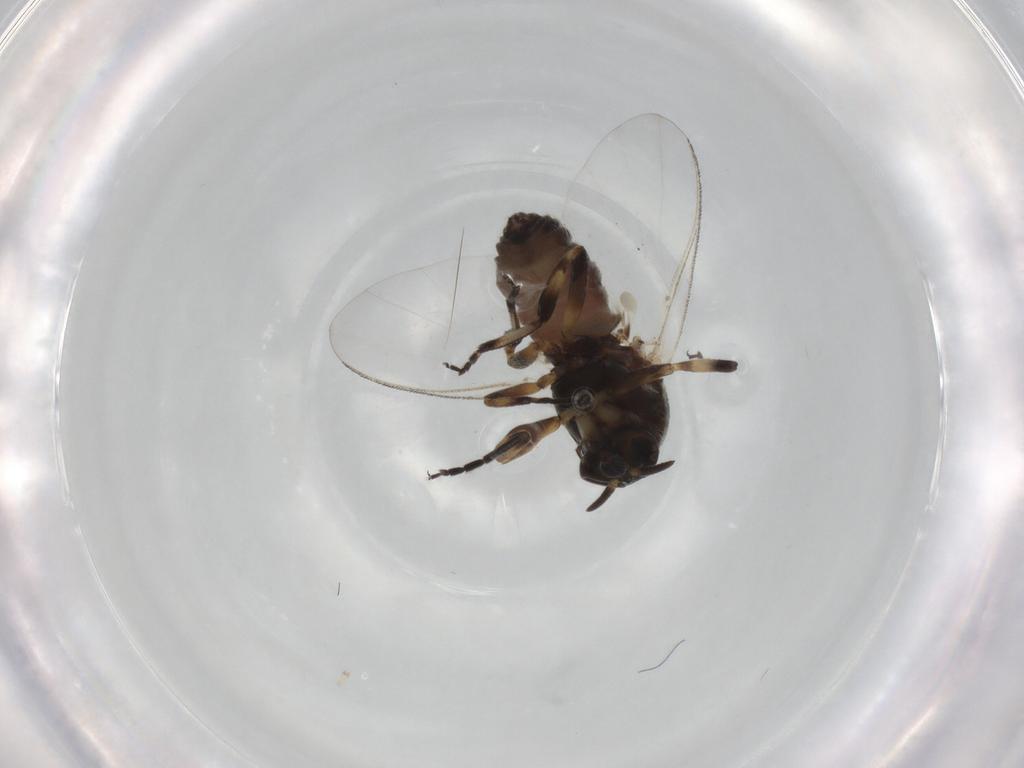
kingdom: Animalia
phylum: Arthropoda
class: Insecta
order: Diptera
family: Simuliidae
